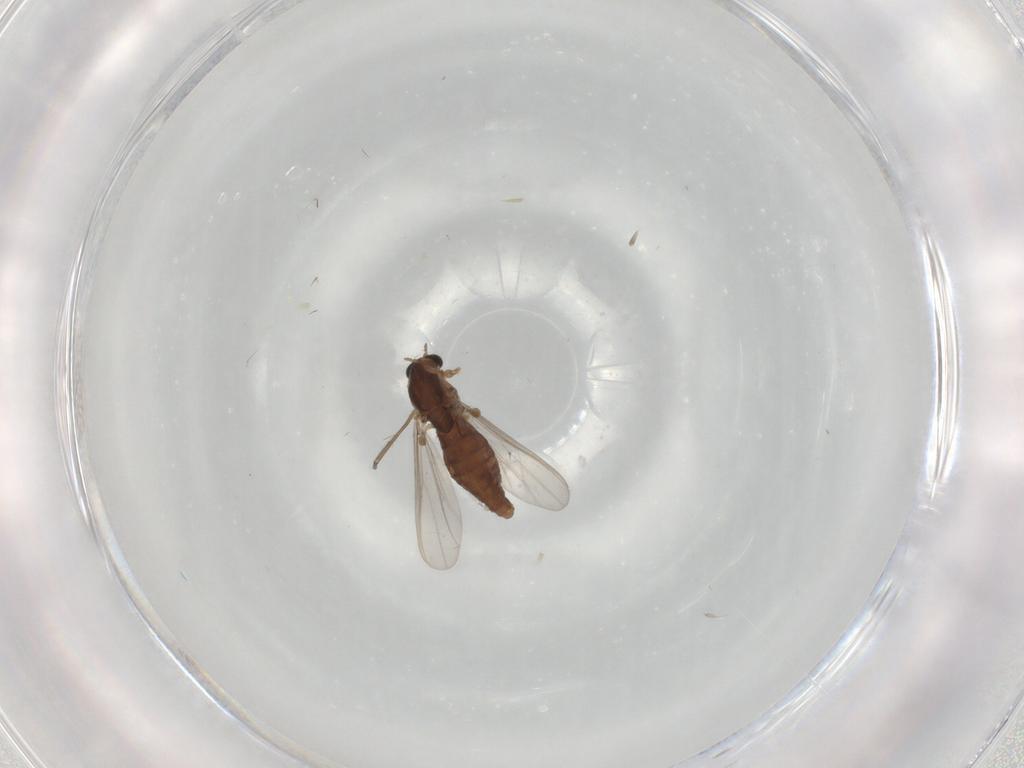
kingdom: Animalia
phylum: Arthropoda
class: Insecta
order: Diptera
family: Chironomidae
